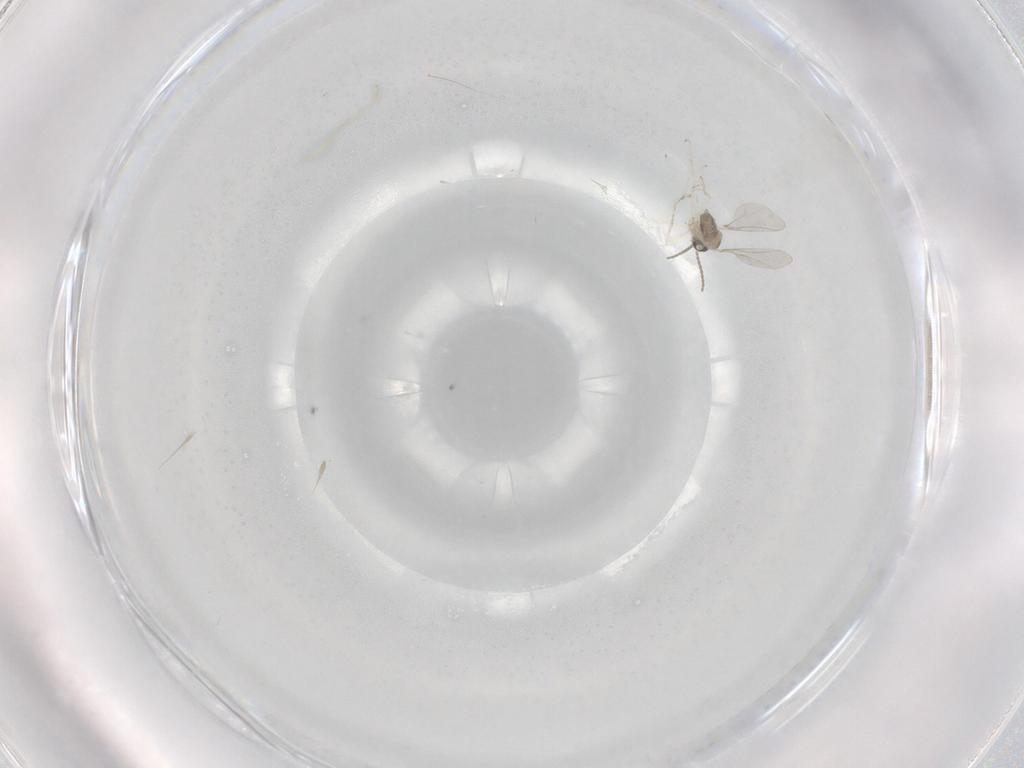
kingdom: Animalia
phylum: Arthropoda
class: Insecta
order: Diptera
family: Cecidomyiidae
